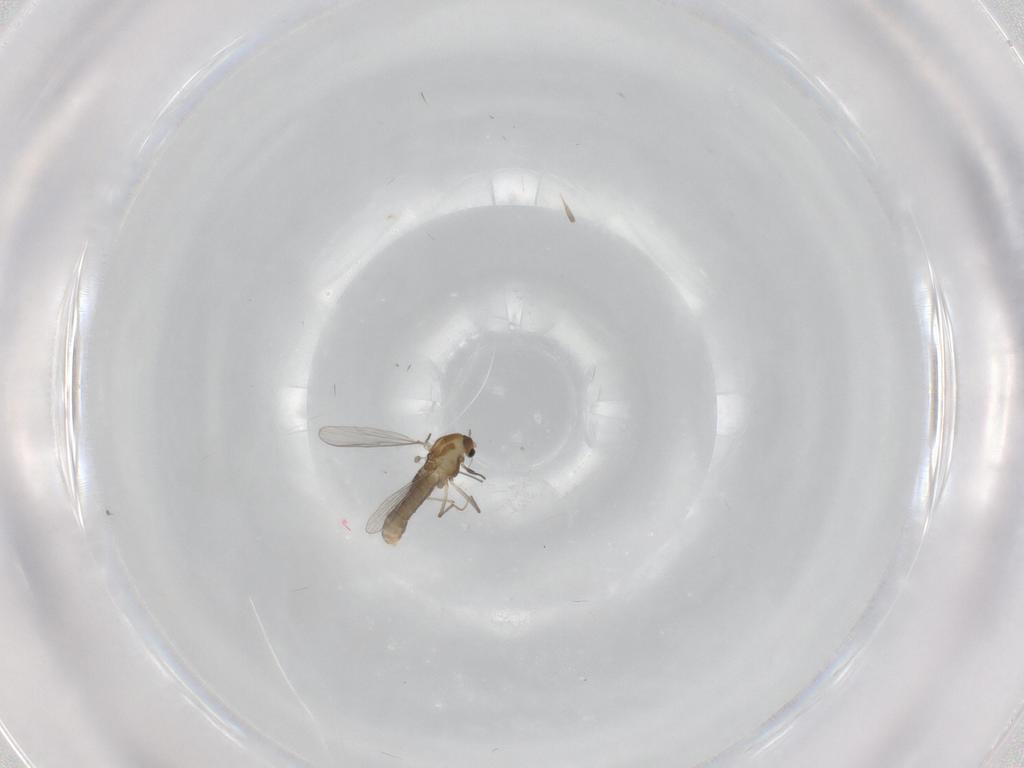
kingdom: Animalia
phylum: Arthropoda
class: Insecta
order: Diptera
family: Chironomidae
